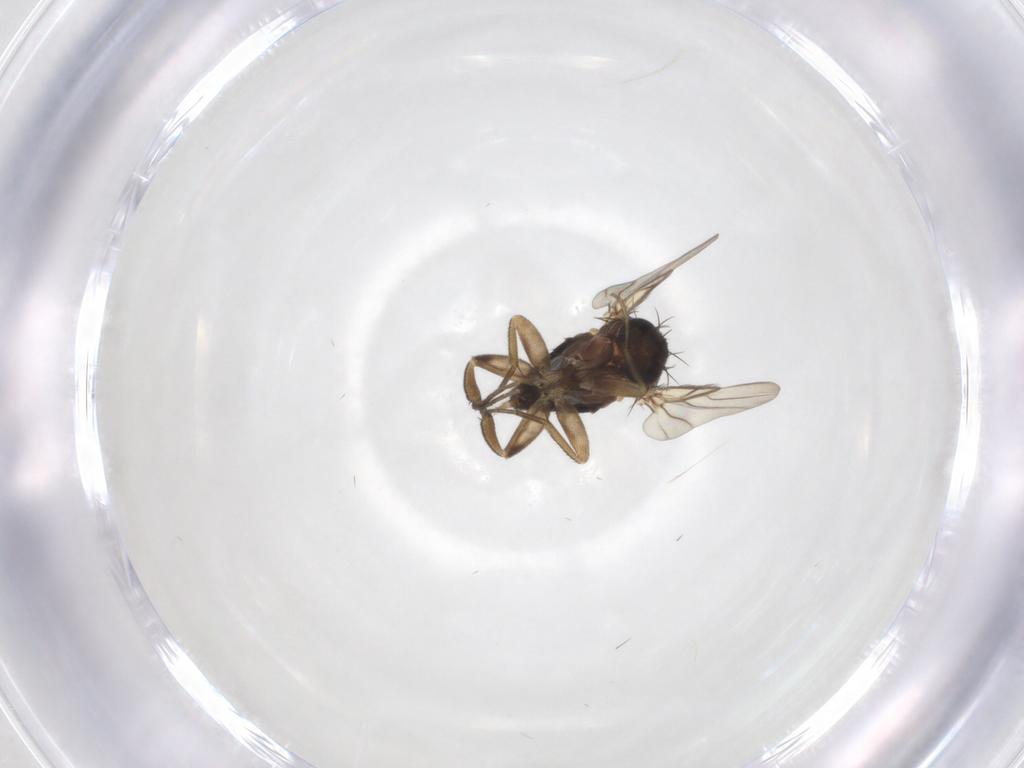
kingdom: Animalia
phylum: Arthropoda
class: Insecta
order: Diptera
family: Phoridae
